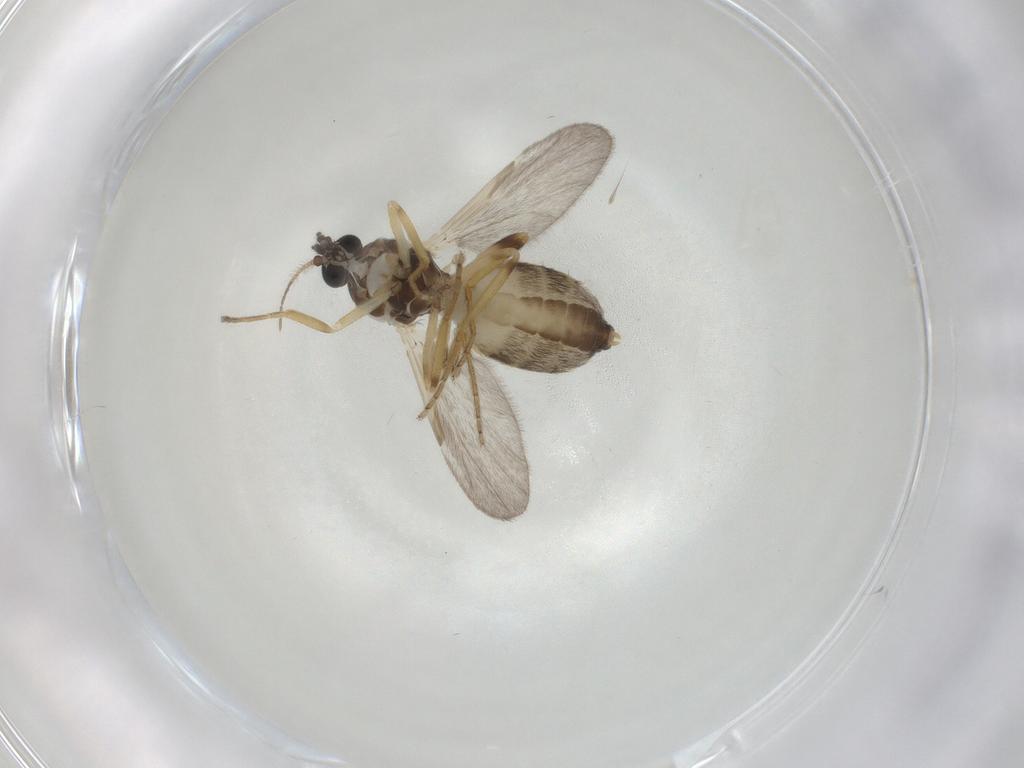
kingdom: Animalia
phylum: Arthropoda
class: Insecta
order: Diptera
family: Ceratopogonidae
